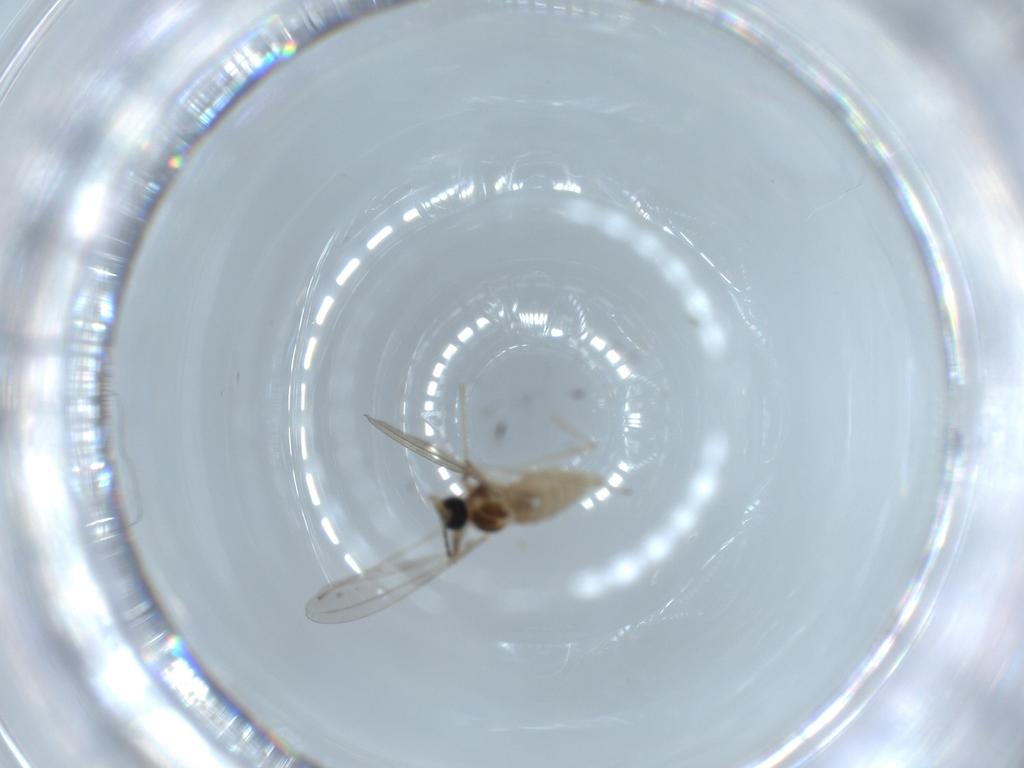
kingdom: Animalia
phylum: Arthropoda
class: Insecta
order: Diptera
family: Cecidomyiidae
